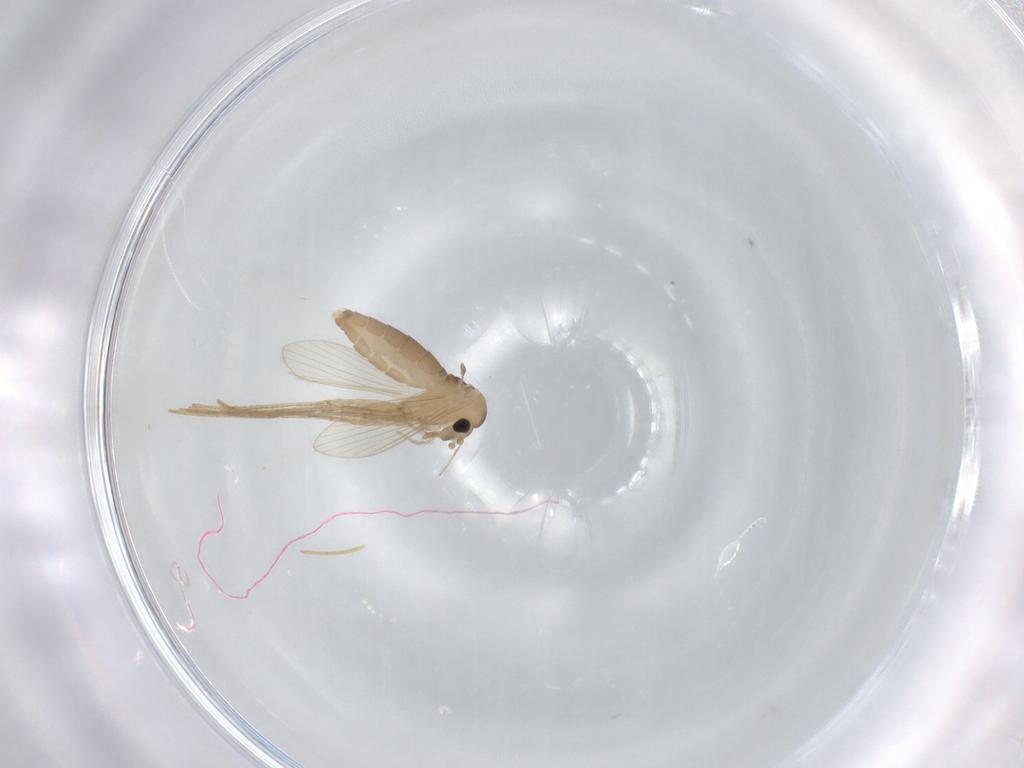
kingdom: Animalia
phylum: Arthropoda
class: Insecta
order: Diptera
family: Psychodidae
